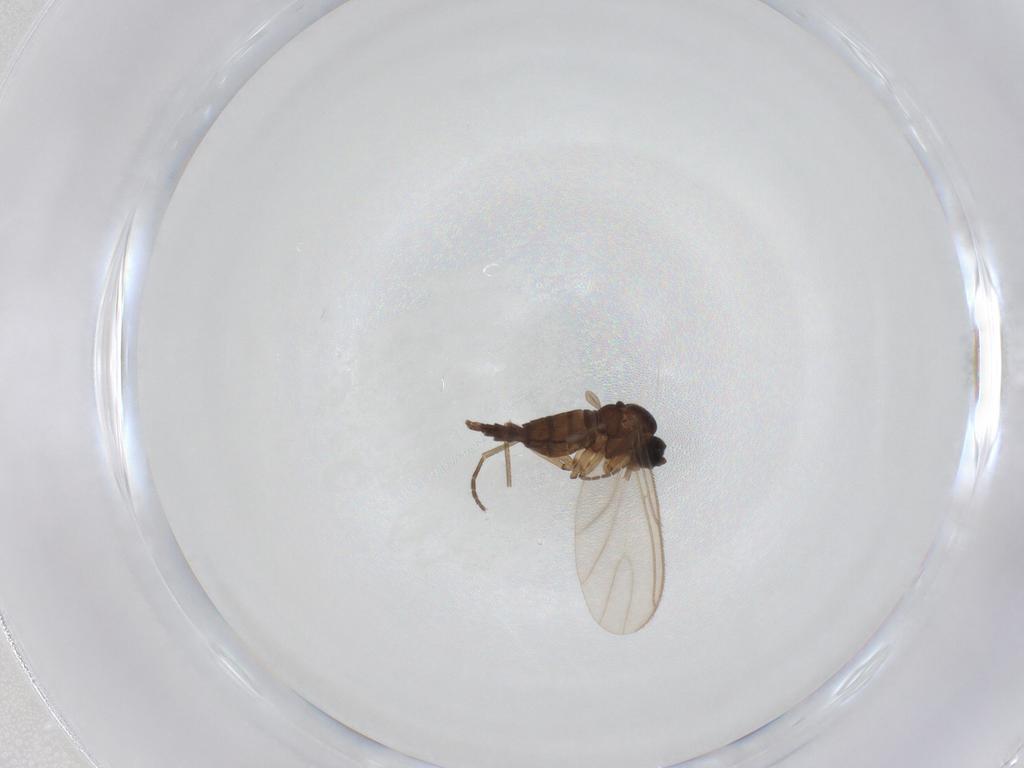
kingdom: Animalia
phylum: Arthropoda
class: Insecta
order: Diptera
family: Sciaridae
